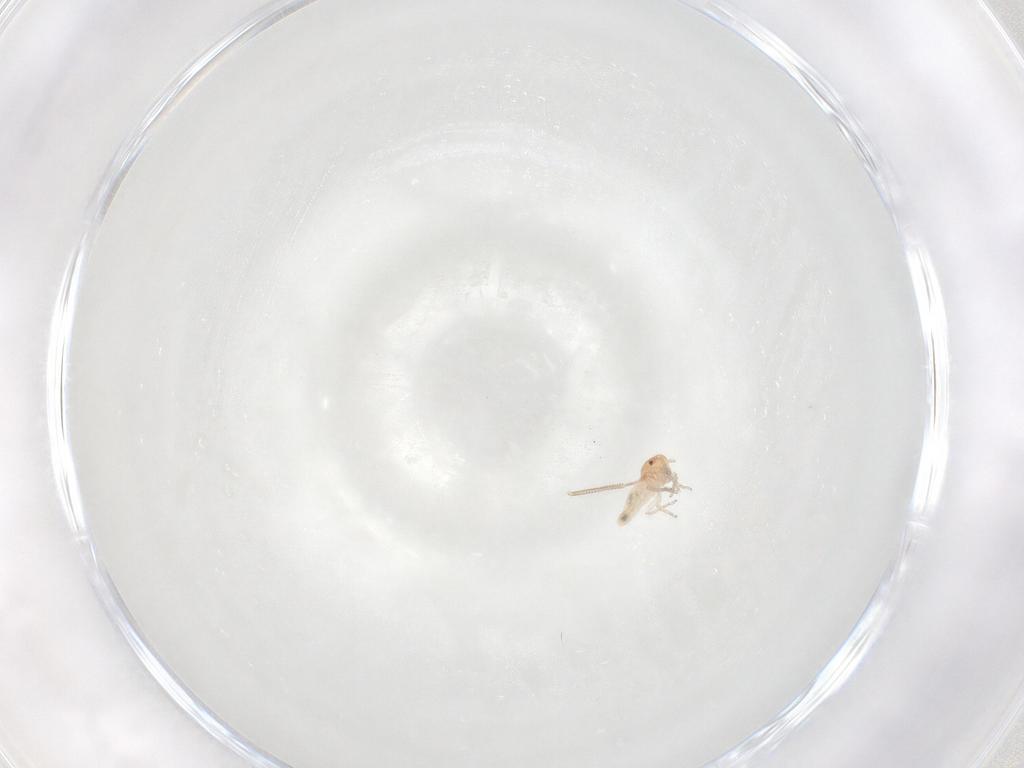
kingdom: Animalia
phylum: Arthropoda
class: Insecta
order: Psocodea
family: Caeciliusidae
